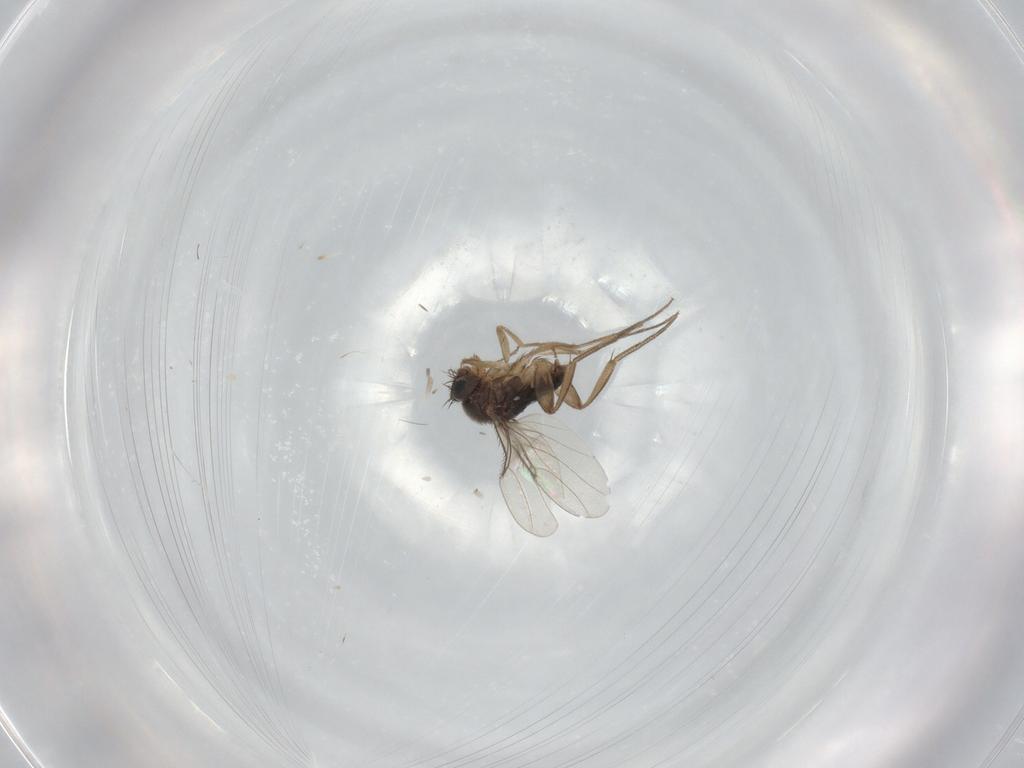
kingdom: Animalia
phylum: Arthropoda
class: Insecta
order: Diptera
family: Phoridae
